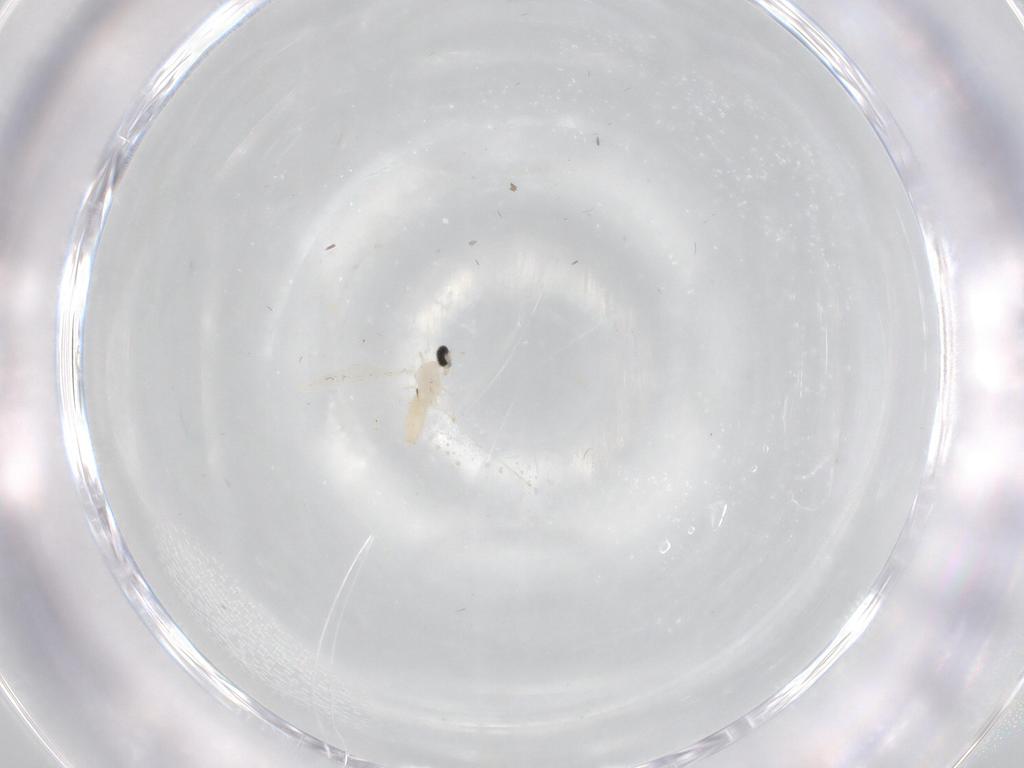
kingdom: Animalia
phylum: Arthropoda
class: Insecta
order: Diptera
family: Cecidomyiidae
